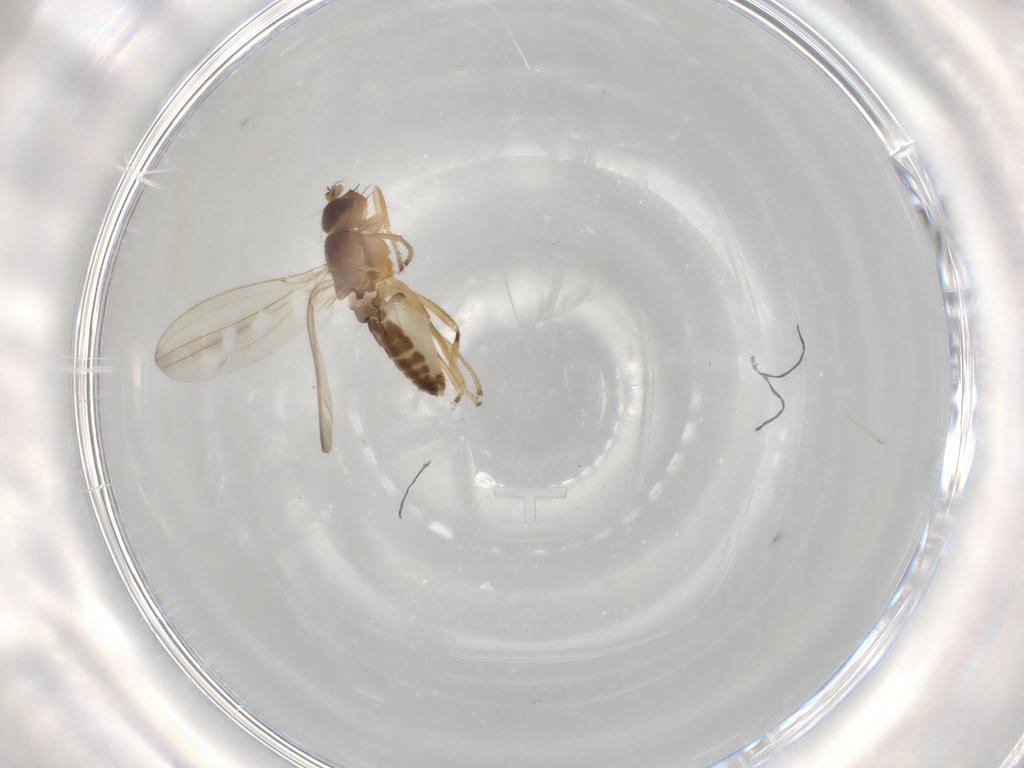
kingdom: Animalia
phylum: Arthropoda
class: Insecta
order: Diptera
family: Periscelididae
